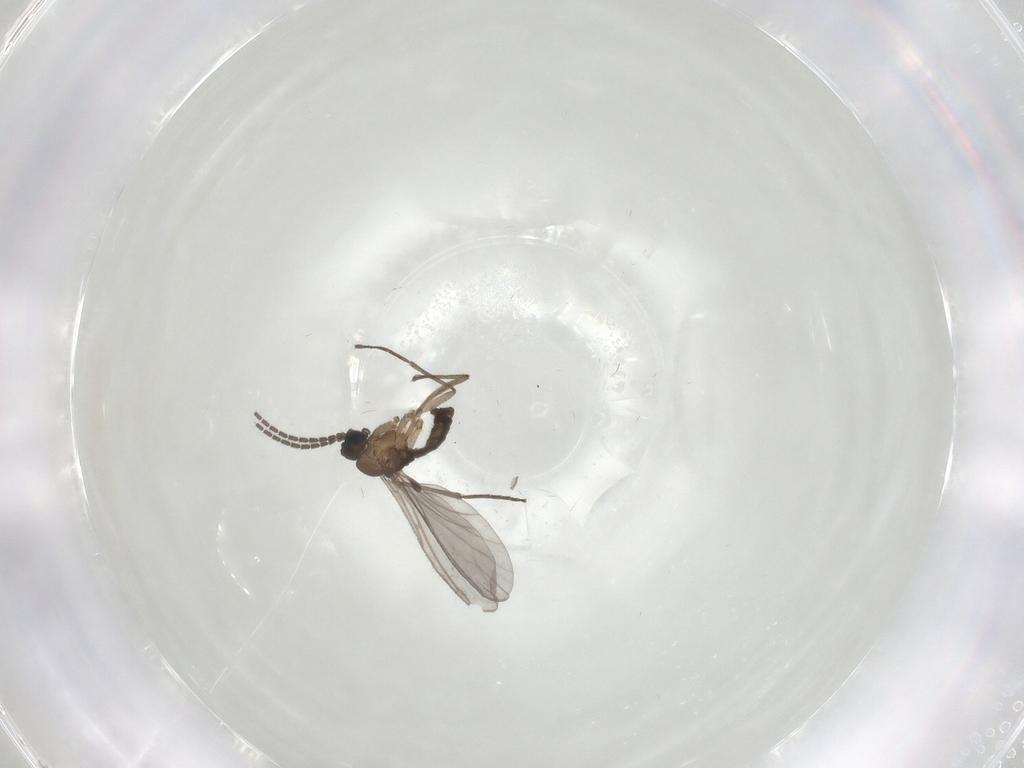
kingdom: Animalia
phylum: Arthropoda
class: Insecta
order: Diptera
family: Sciaridae
